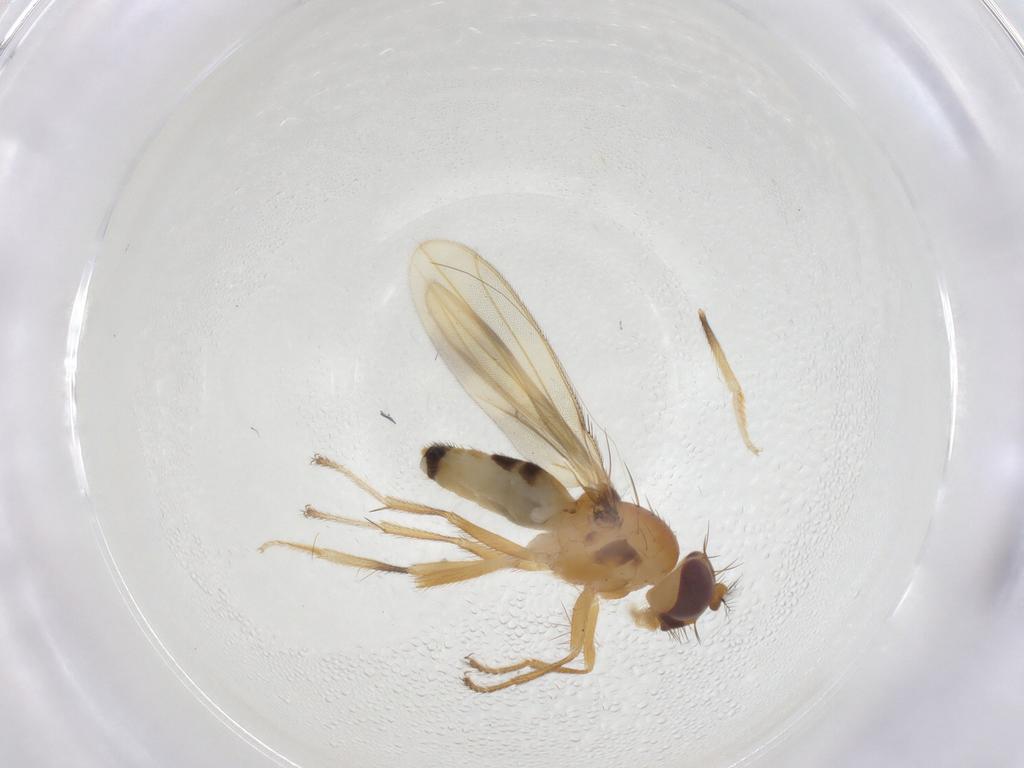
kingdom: Animalia
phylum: Arthropoda
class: Insecta
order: Diptera
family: Periscelididae
